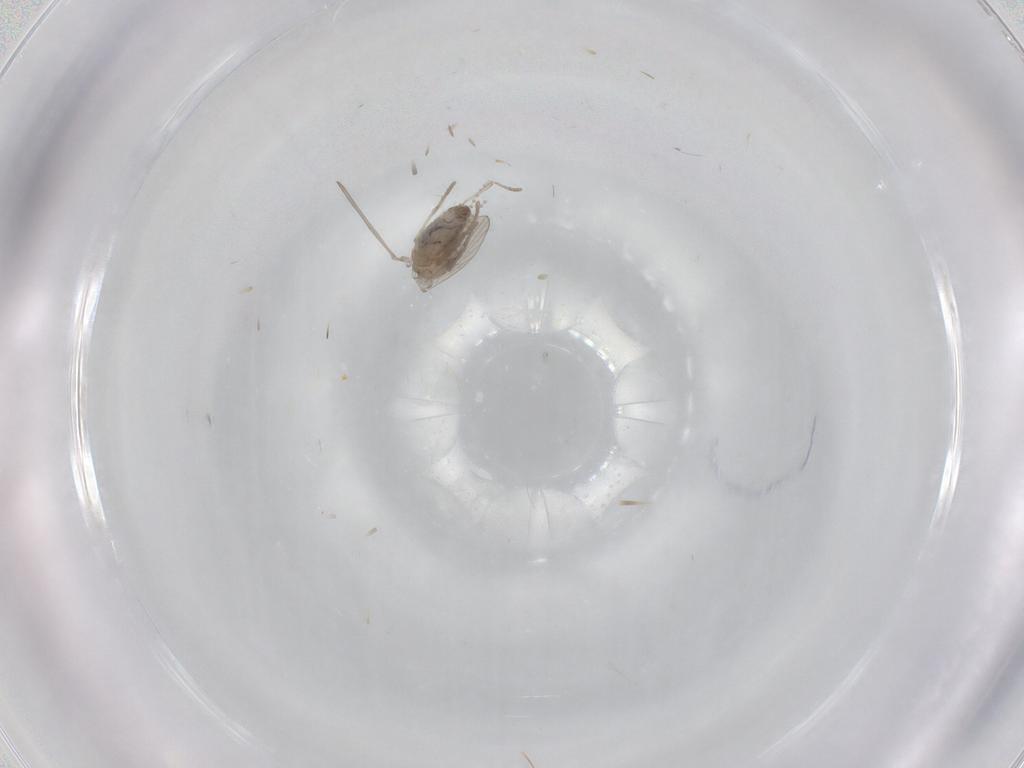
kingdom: Animalia
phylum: Arthropoda
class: Insecta
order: Diptera
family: Psychodidae
